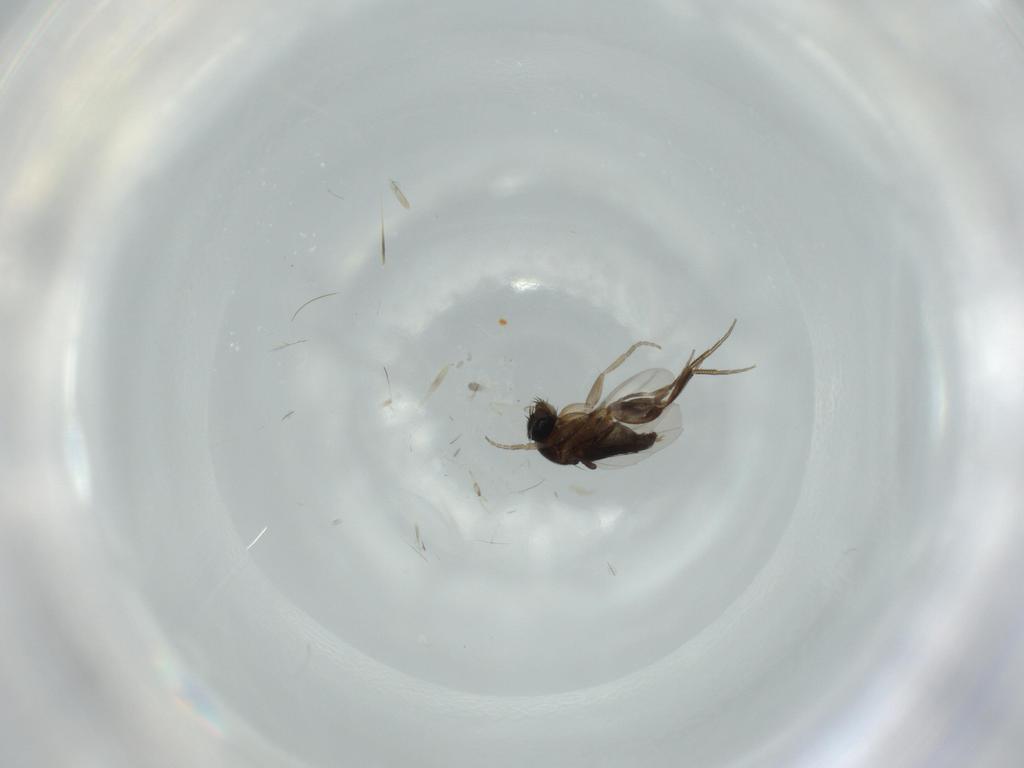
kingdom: Animalia
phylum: Arthropoda
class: Insecta
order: Diptera
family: Phoridae
